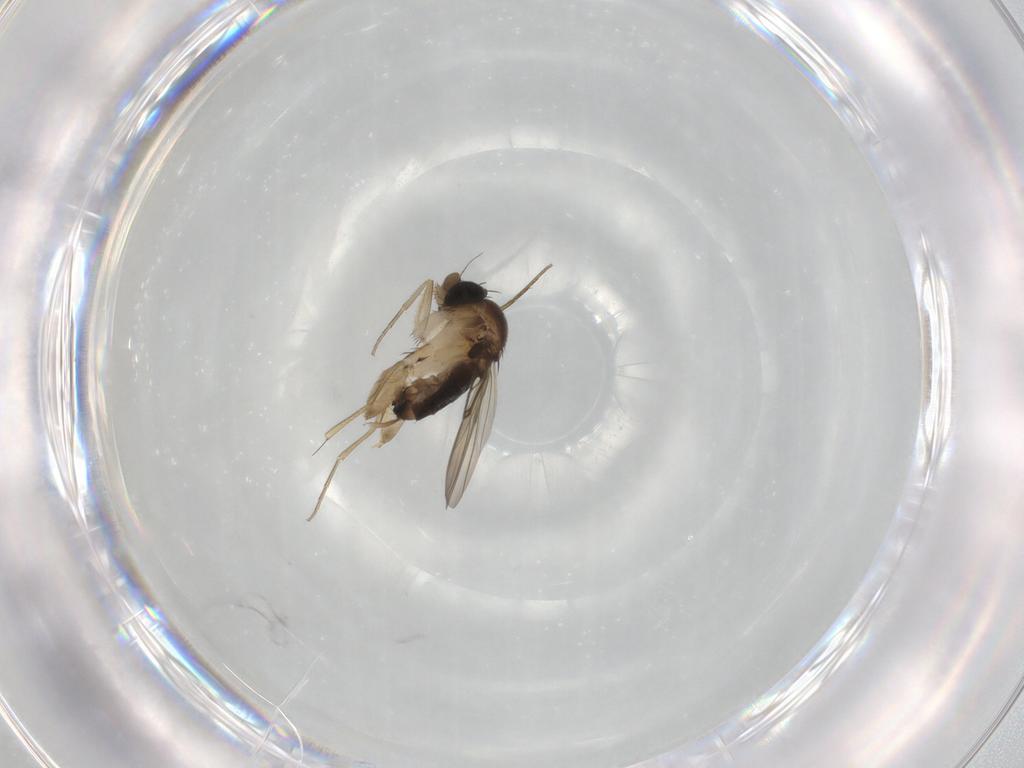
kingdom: Animalia
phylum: Arthropoda
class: Insecta
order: Diptera
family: Phoridae
